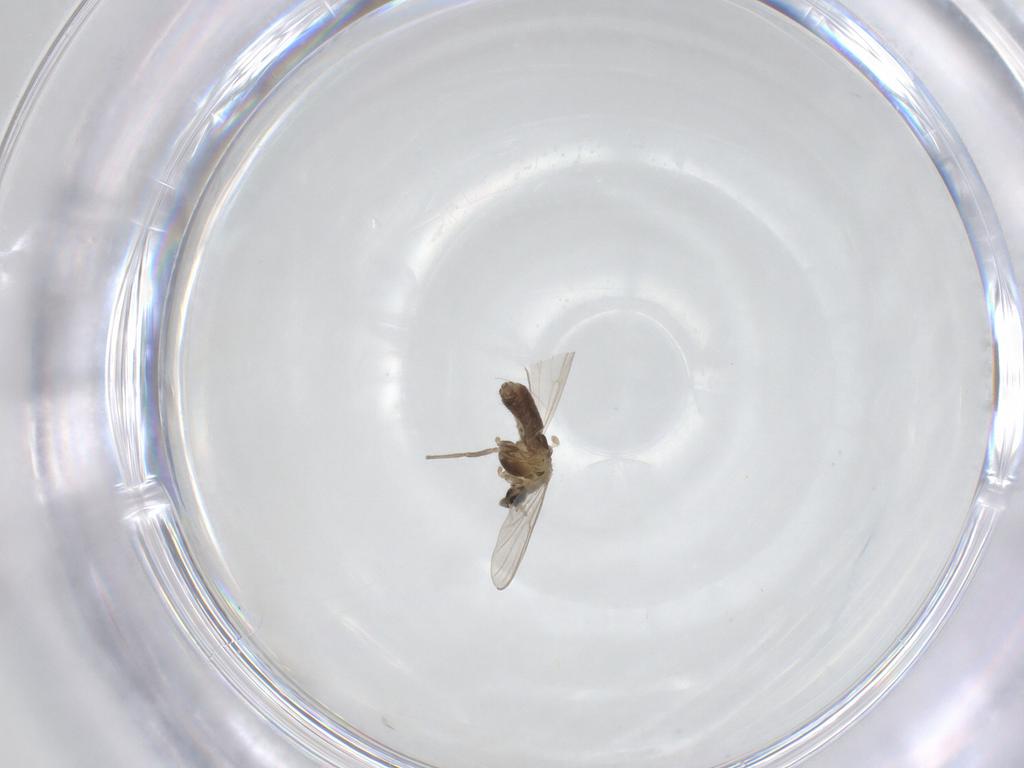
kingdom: Animalia
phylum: Arthropoda
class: Insecta
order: Diptera
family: Chironomidae
